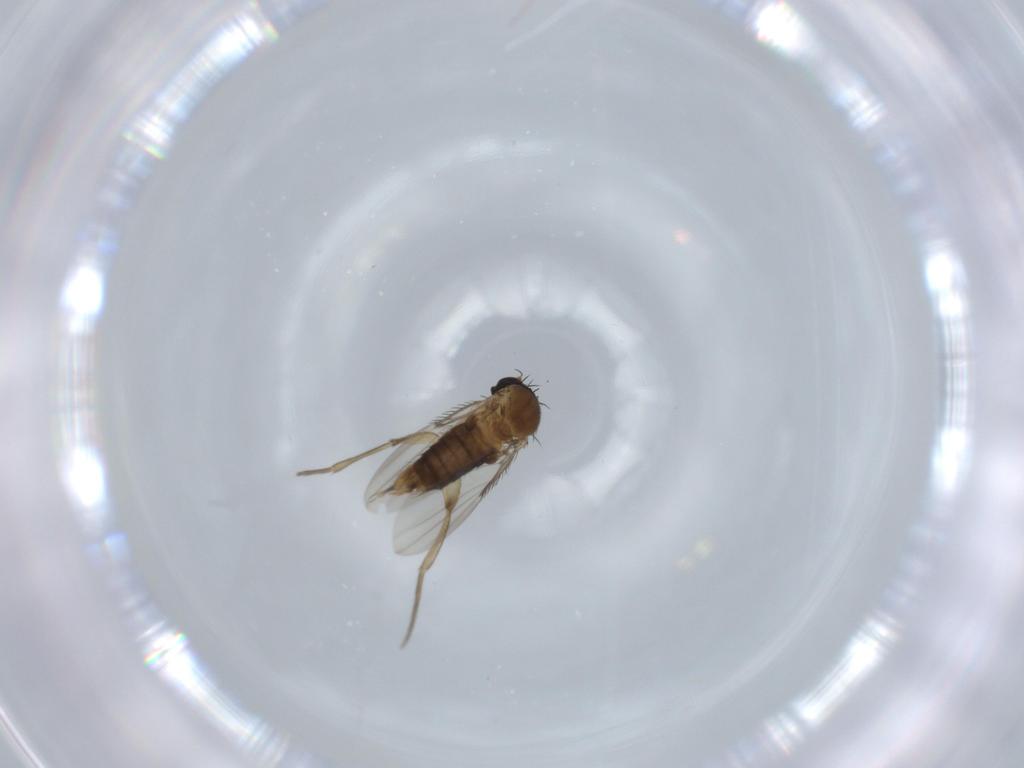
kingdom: Animalia
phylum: Arthropoda
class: Insecta
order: Diptera
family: Phoridae
